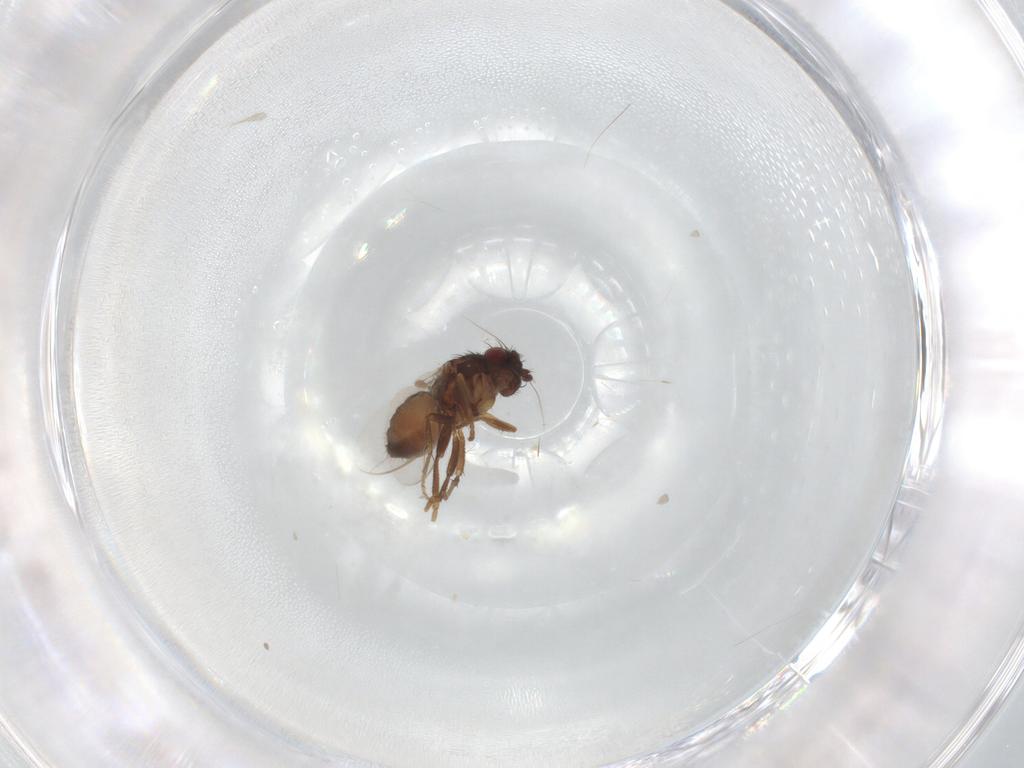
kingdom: Animalia
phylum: Arthropoda
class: Insecta
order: Diptera
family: Sphaeroceridae
